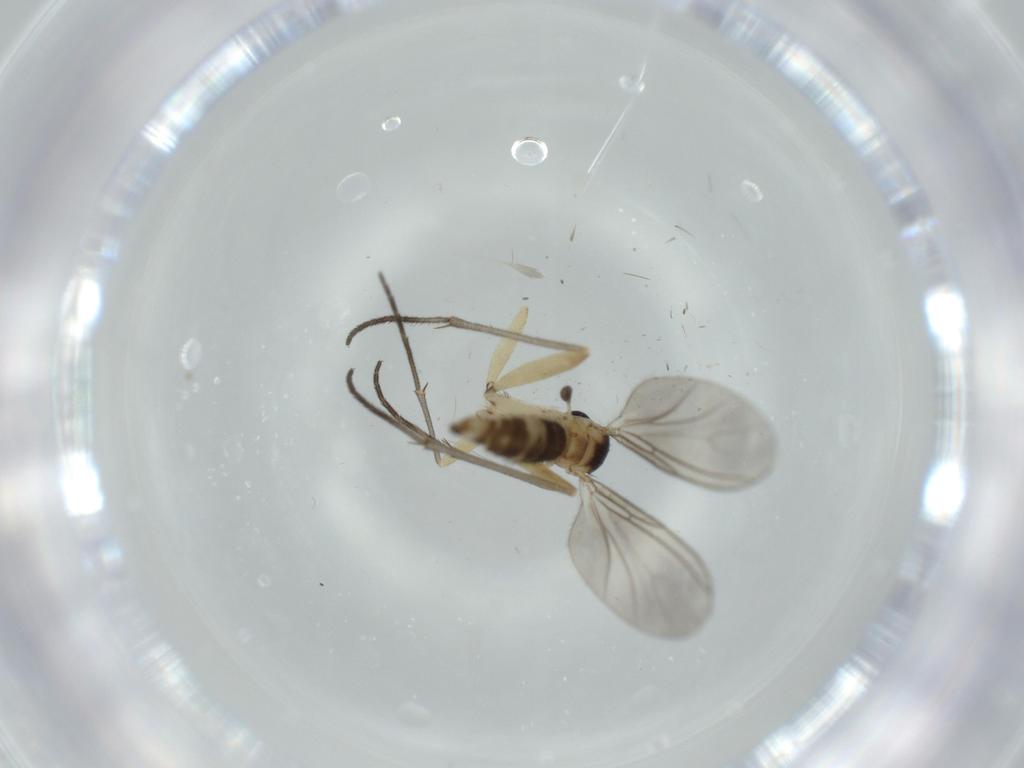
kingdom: Animalia
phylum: Arthropoda
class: Insecta
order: Diptera
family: Sciaridae
